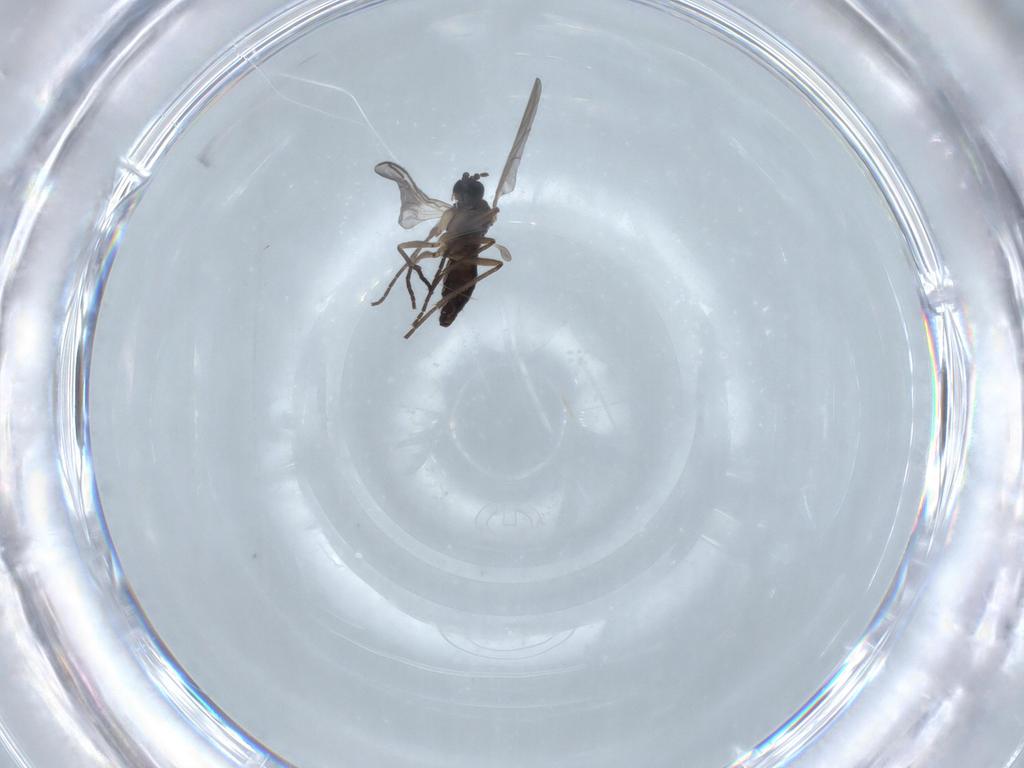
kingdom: Animalia
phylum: Arthropoda
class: Insecta
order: Diptera
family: Sciaridae
